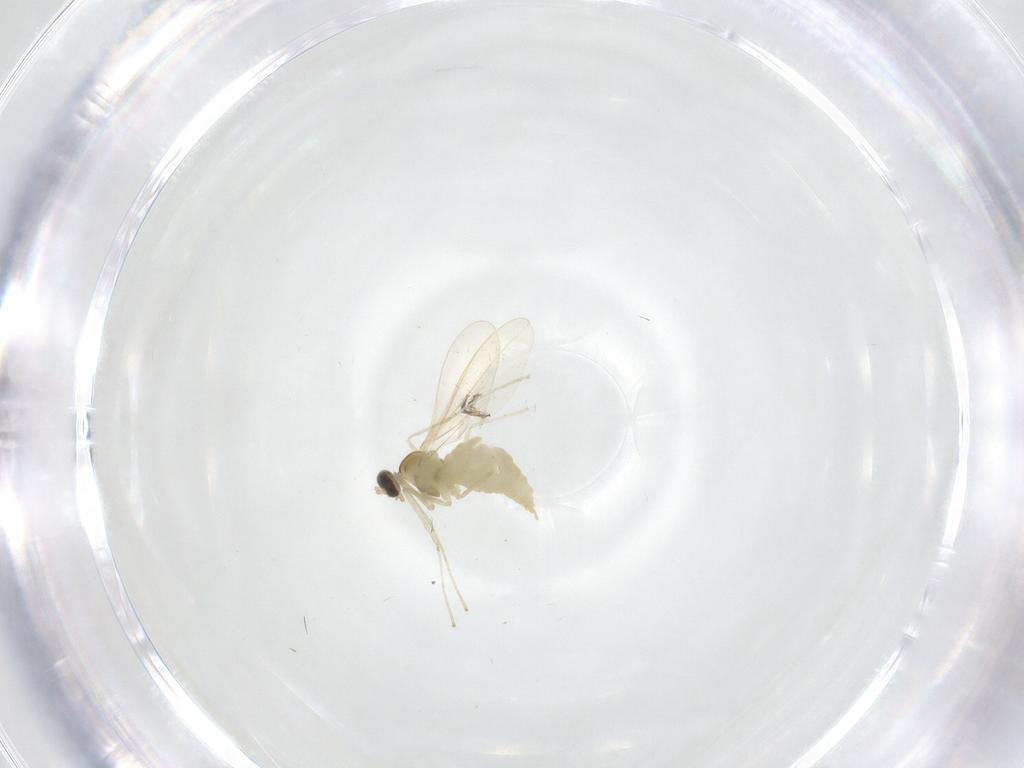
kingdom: Animalia
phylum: Arthropoda
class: Insecta
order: Diptera
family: Cecidomyiidae
